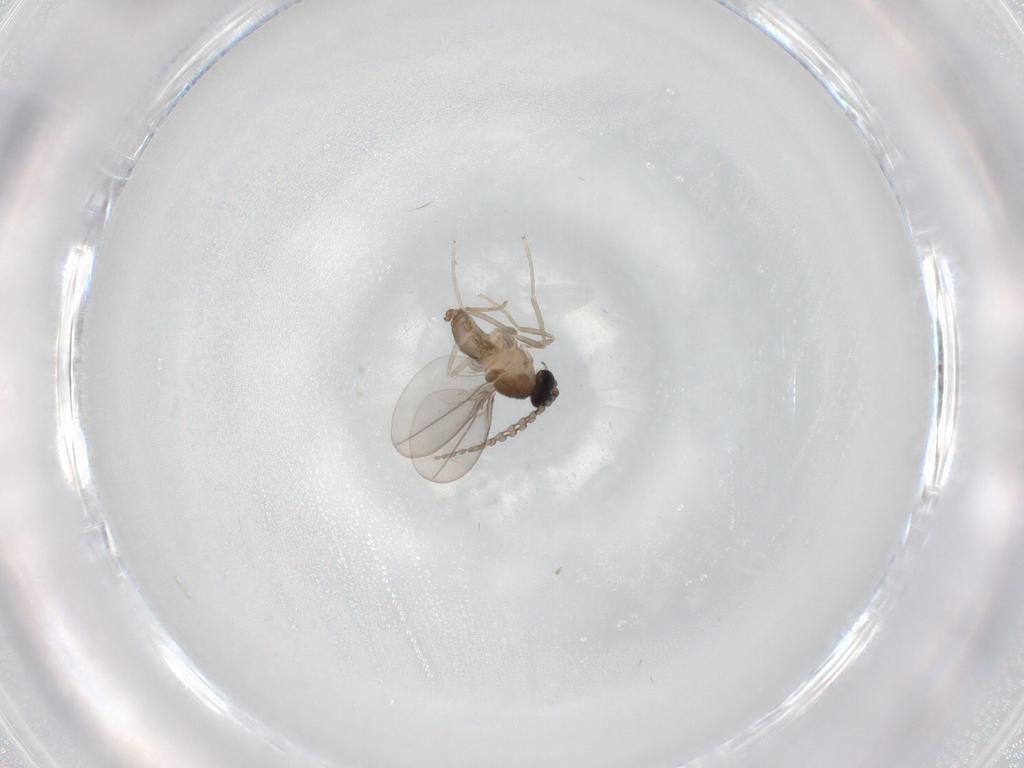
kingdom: Animalia
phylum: Arthropoda
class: Insecta
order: Diptera
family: Cecidomyiidae
